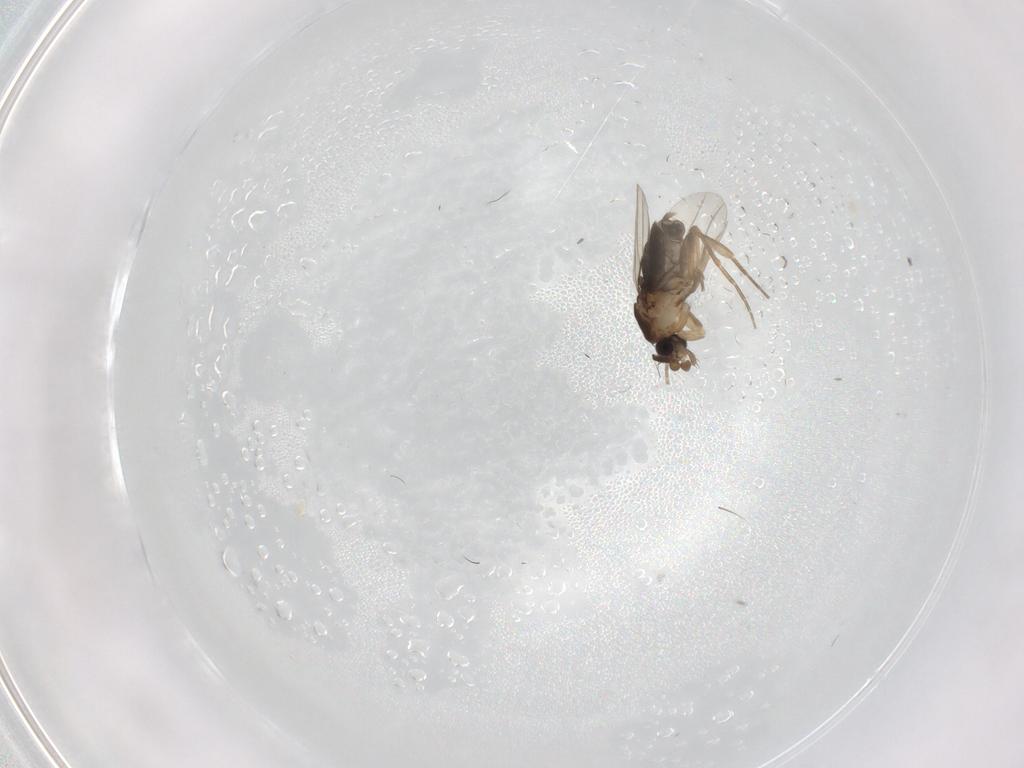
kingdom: Animalia
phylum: Arthropoda
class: Insecta
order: Diptera
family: Phoridae
